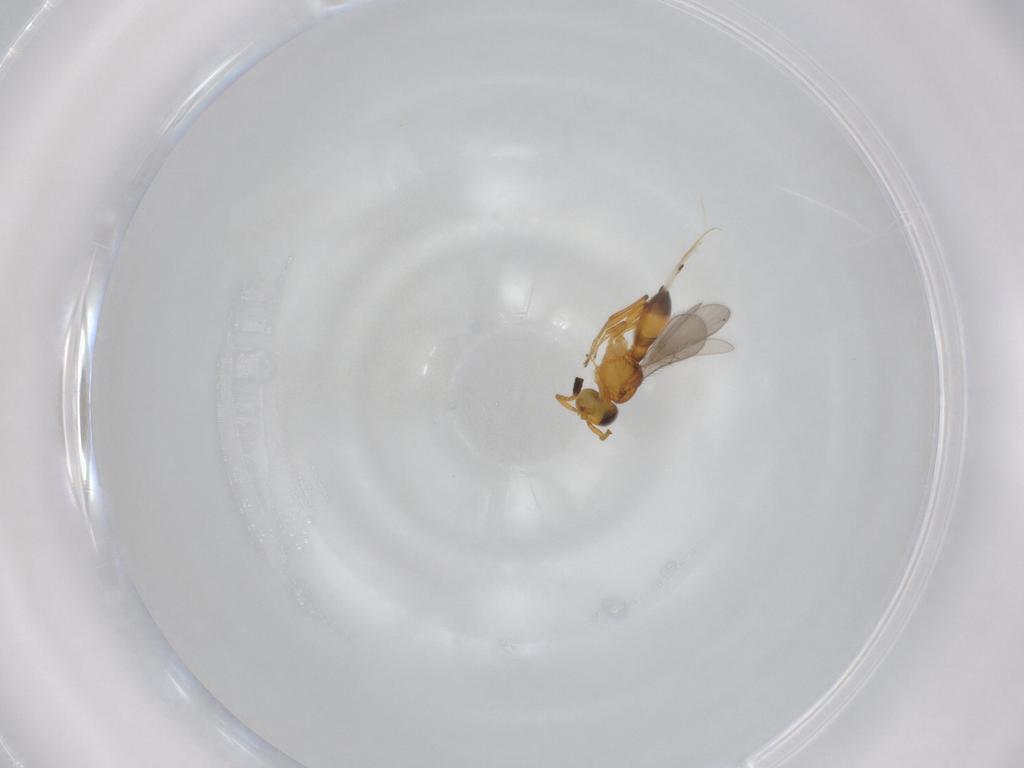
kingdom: Animalia
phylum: Arthropoda
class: Insecta
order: Hymenoptera
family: Scelionidae
